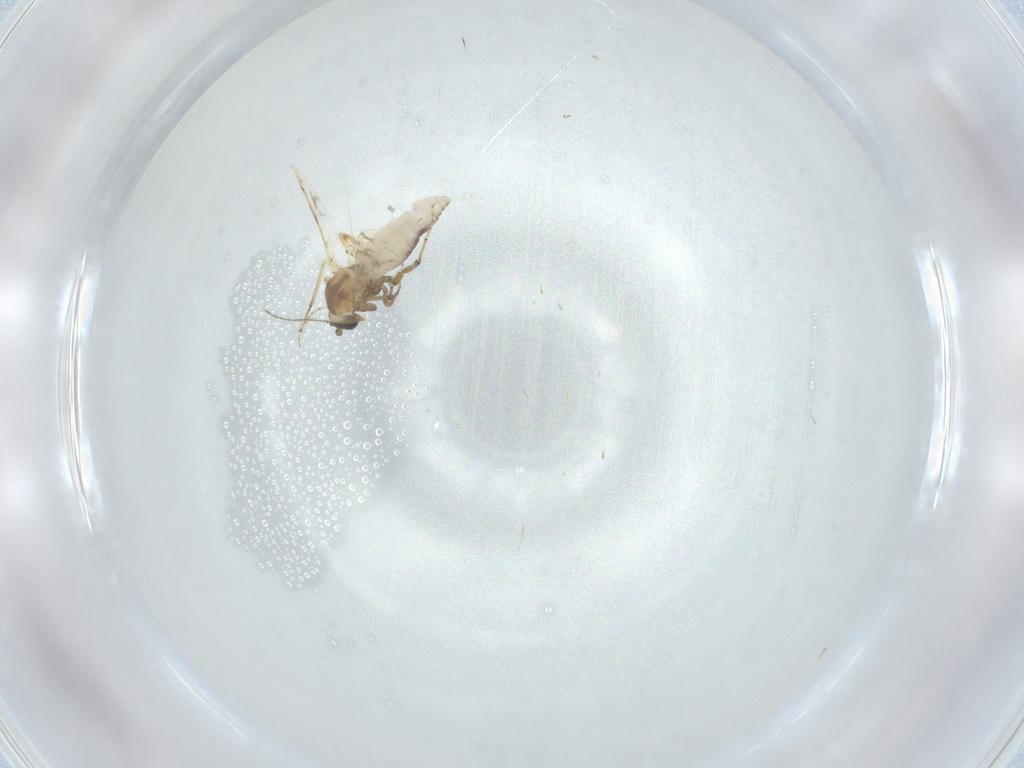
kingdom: Animalia
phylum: Arthropoda
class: Insecta
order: Diptera
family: Ceratopogonidae
